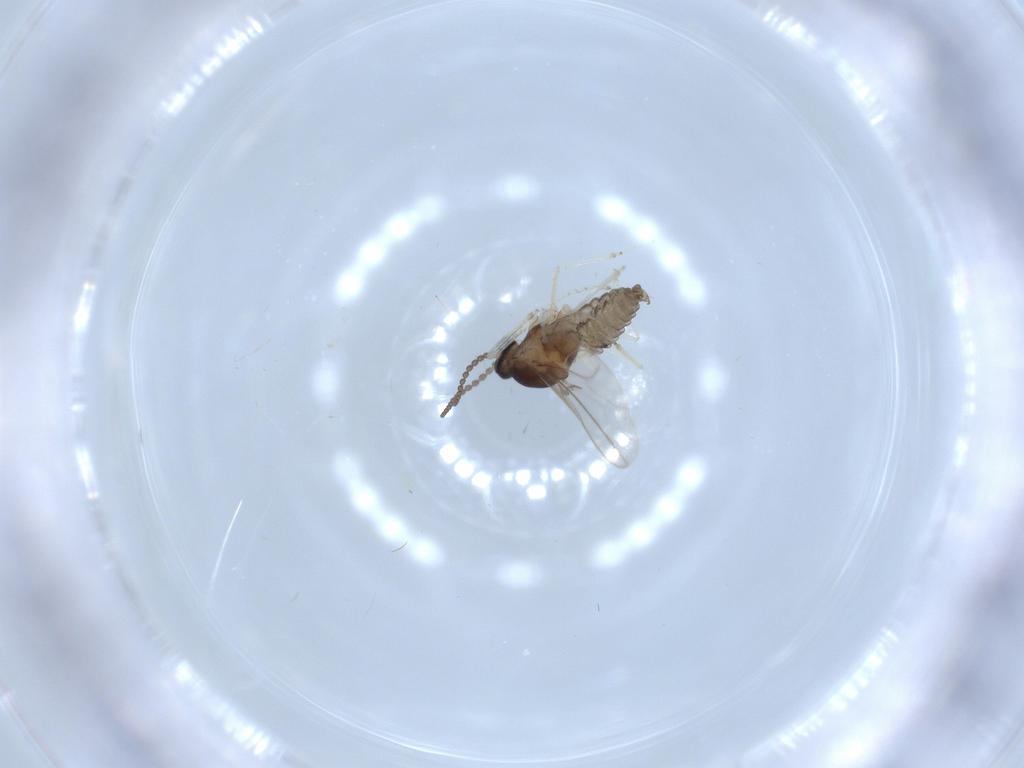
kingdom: Animalia
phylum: Arthropoda
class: Insecta
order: Diptera
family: Cecidomyiidae
